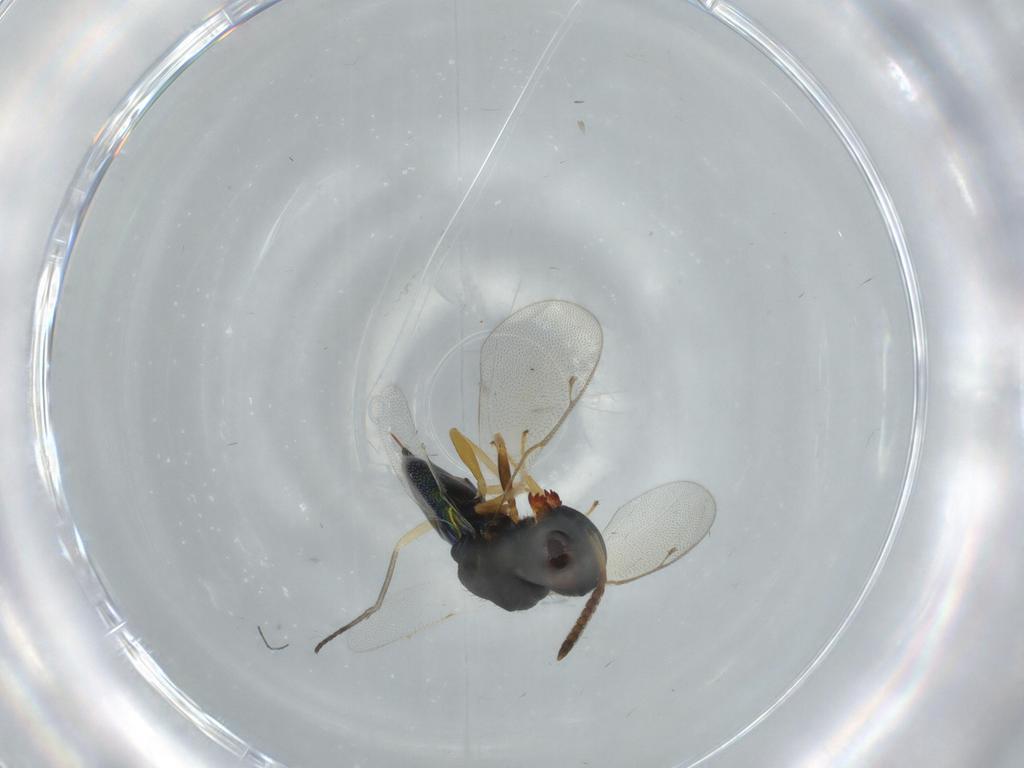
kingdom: Animalia
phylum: Arthropoda
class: Insecta
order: Hymenoptera
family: Pteromalidae
